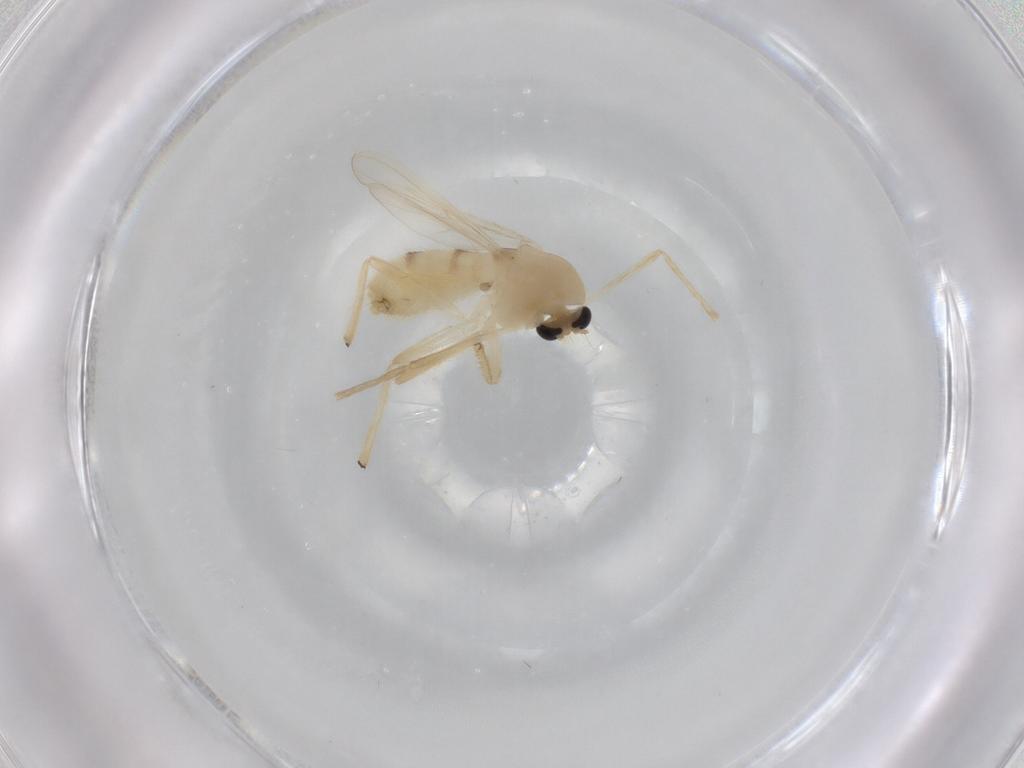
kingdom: Animalia
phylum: Arthropoda
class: Insecta
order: Diptera
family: Chironomidae
